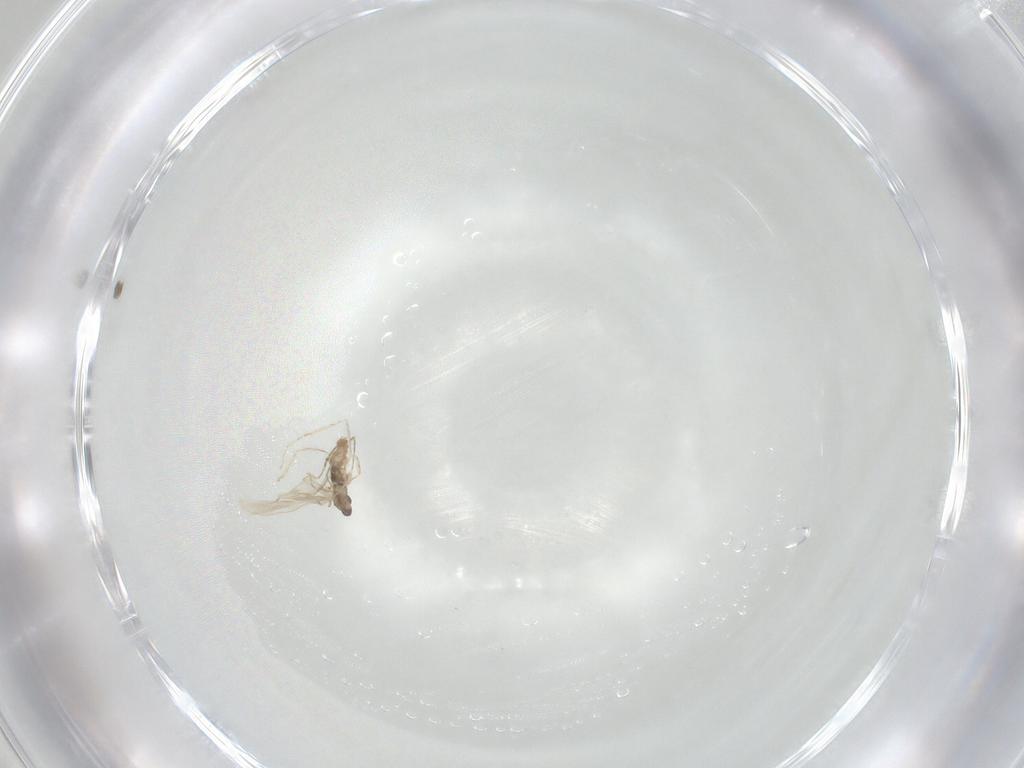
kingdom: Animalia
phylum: Arthropoda
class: Insecta
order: Diptera
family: Cecidomyiidae
